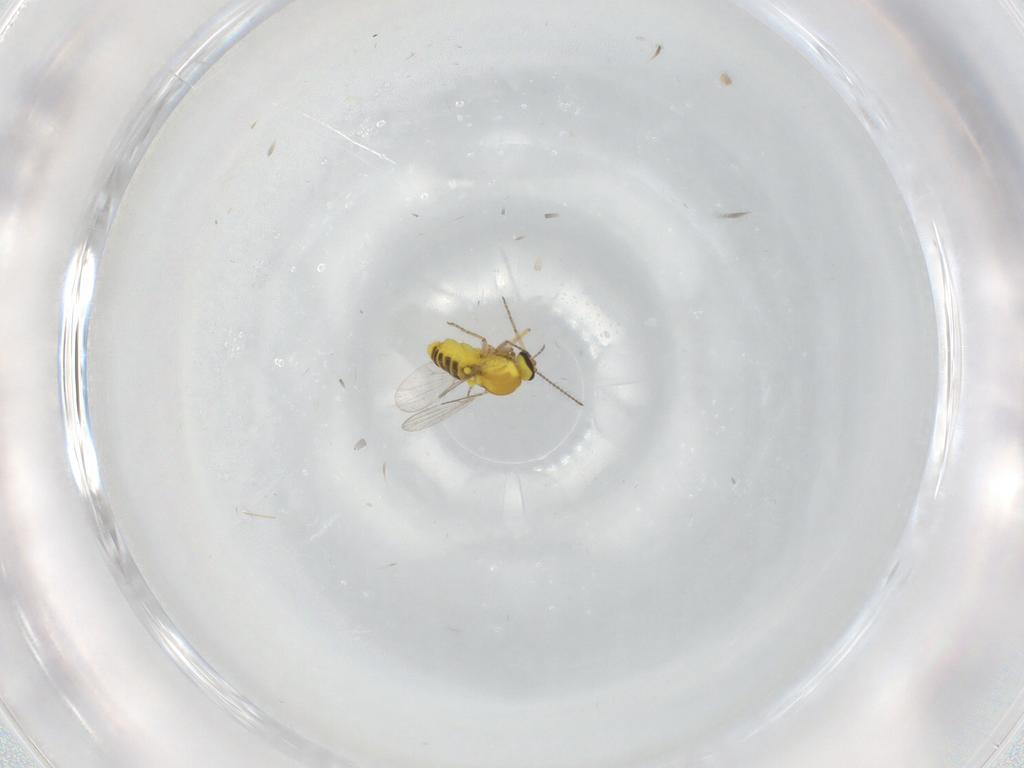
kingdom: Animalia
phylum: Arthropoda
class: Insecta
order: Diptera
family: Ceratopogonidae
